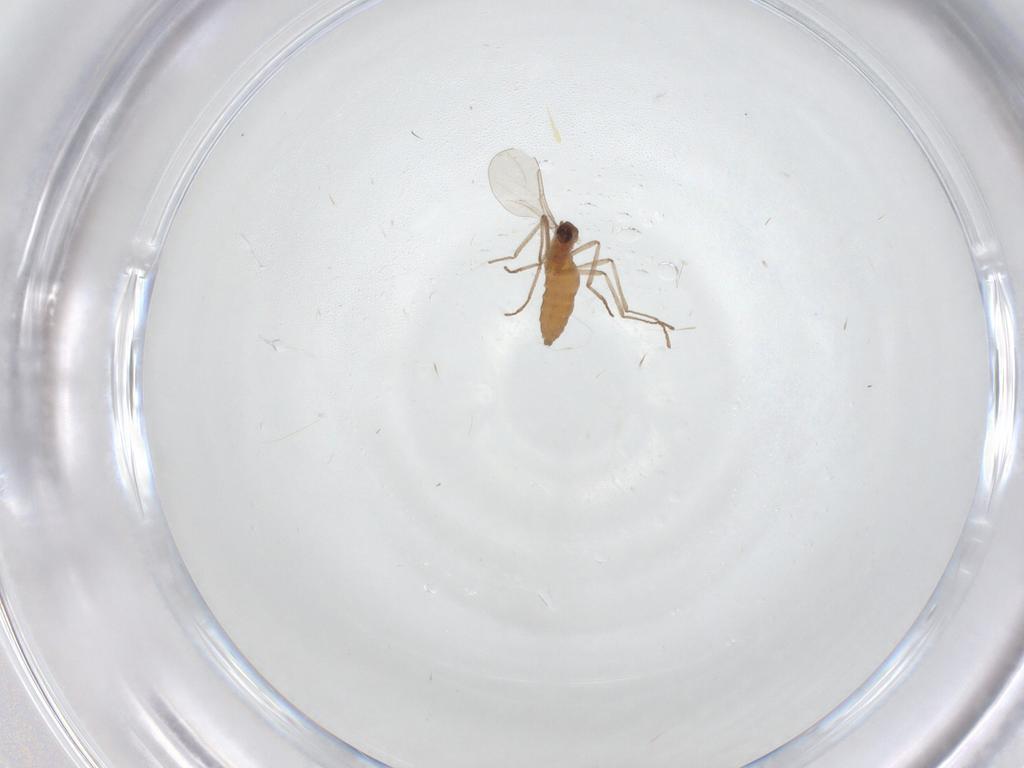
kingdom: Animalia
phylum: Arthropoda
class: Insecta
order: Diptera
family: Cecidomyiidae
